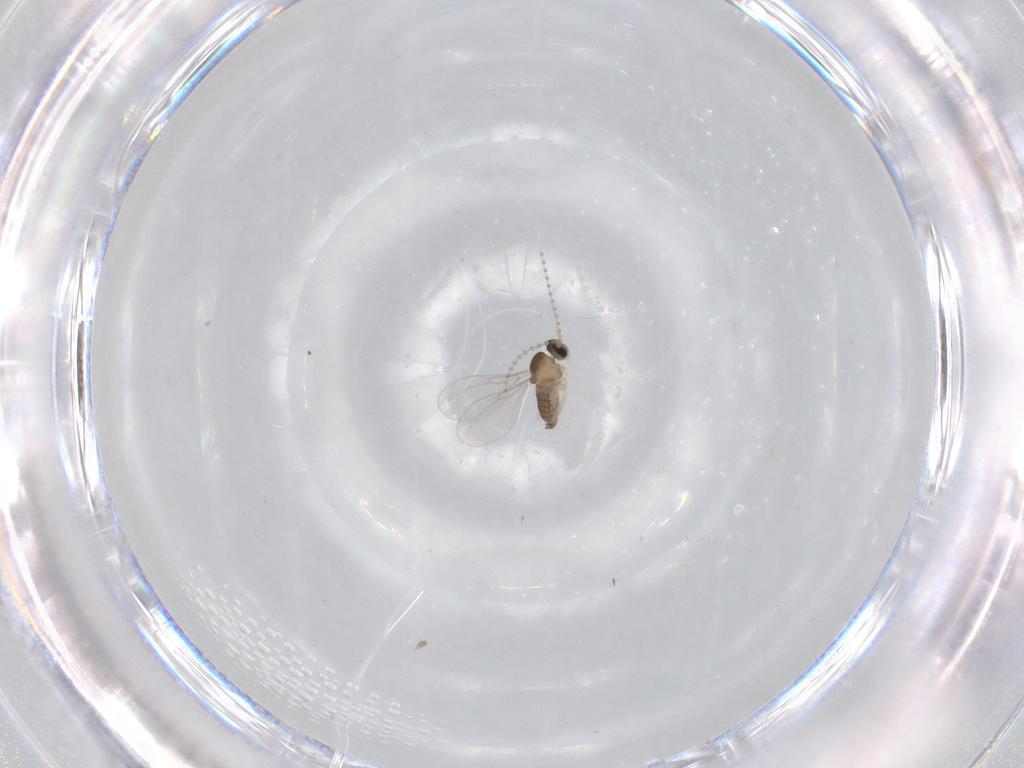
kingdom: Animalia
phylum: Arthropoda
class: Insecta
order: Diptera
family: Cecidomyiidae
